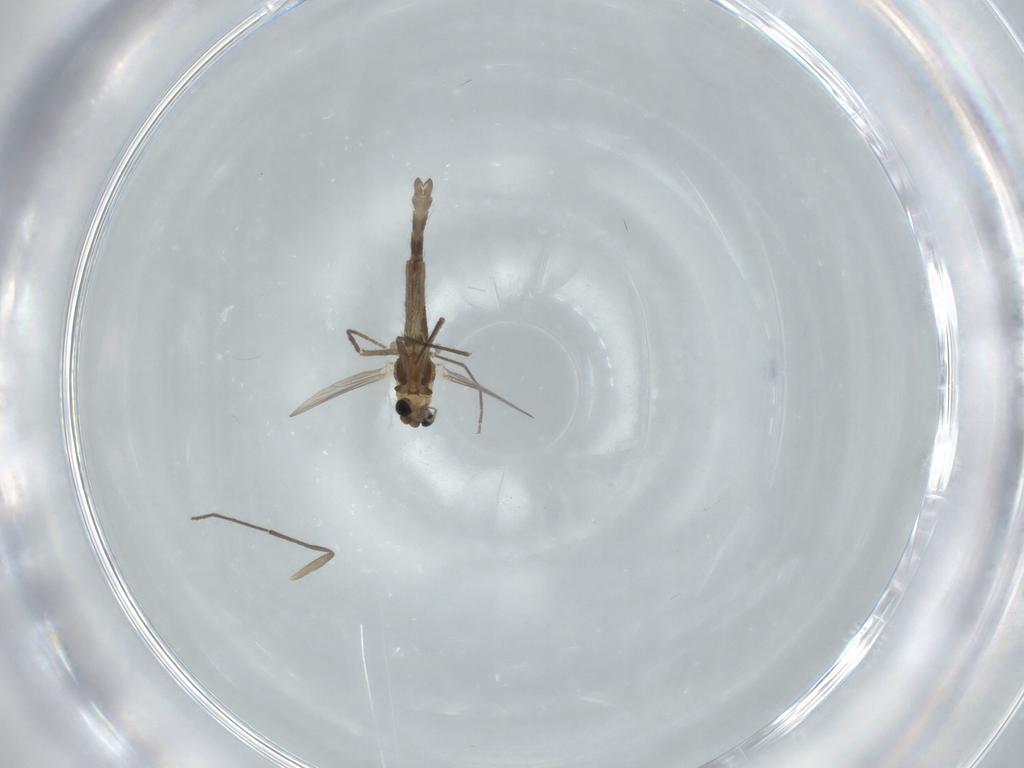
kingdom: Animalia
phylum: Arthropoda
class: Insecta
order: Diptera
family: Chironomidae
